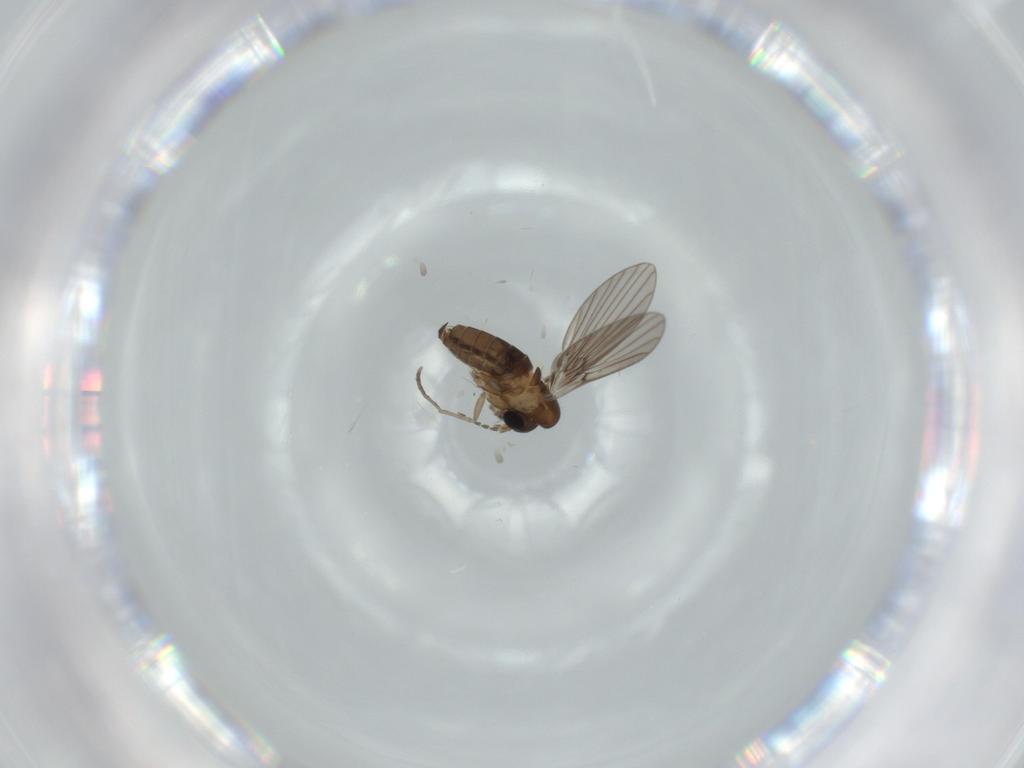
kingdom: Animalia
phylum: Arthropoda
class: Insecta
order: Diptera
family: Psychodidae
